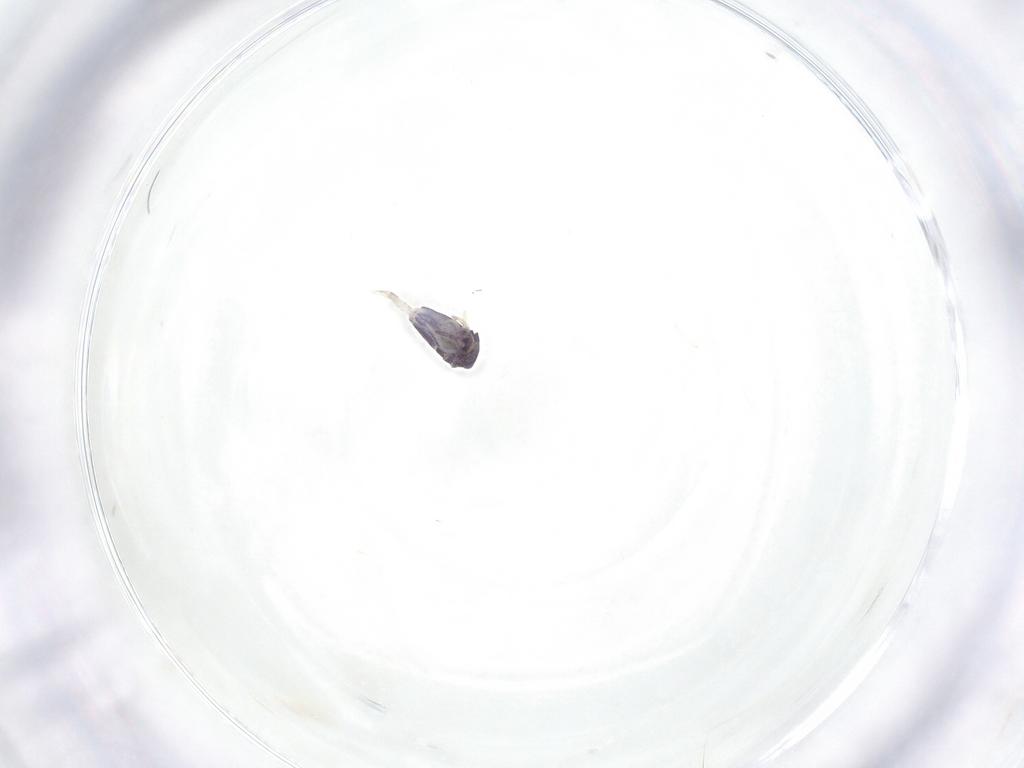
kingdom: Animalia
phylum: Arthropoda
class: Collembola
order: Entomobryomorpha
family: Entomobryidae
